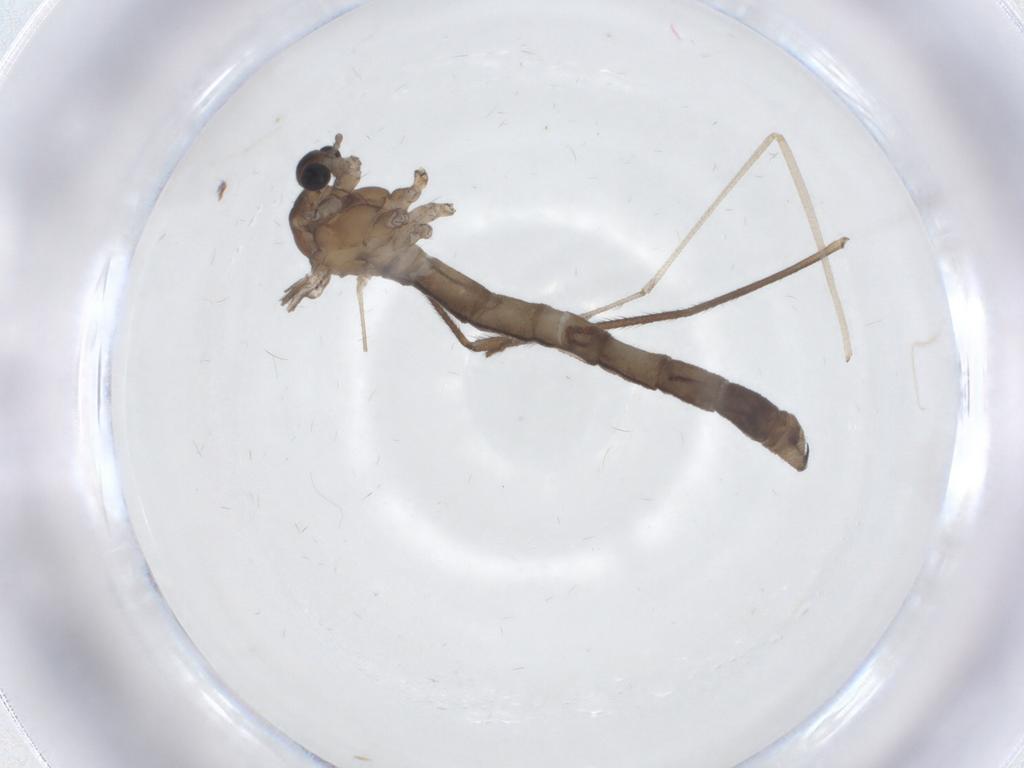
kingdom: Animalia
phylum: Arthropoda
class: Insecta
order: Diptera
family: Limoniidae
